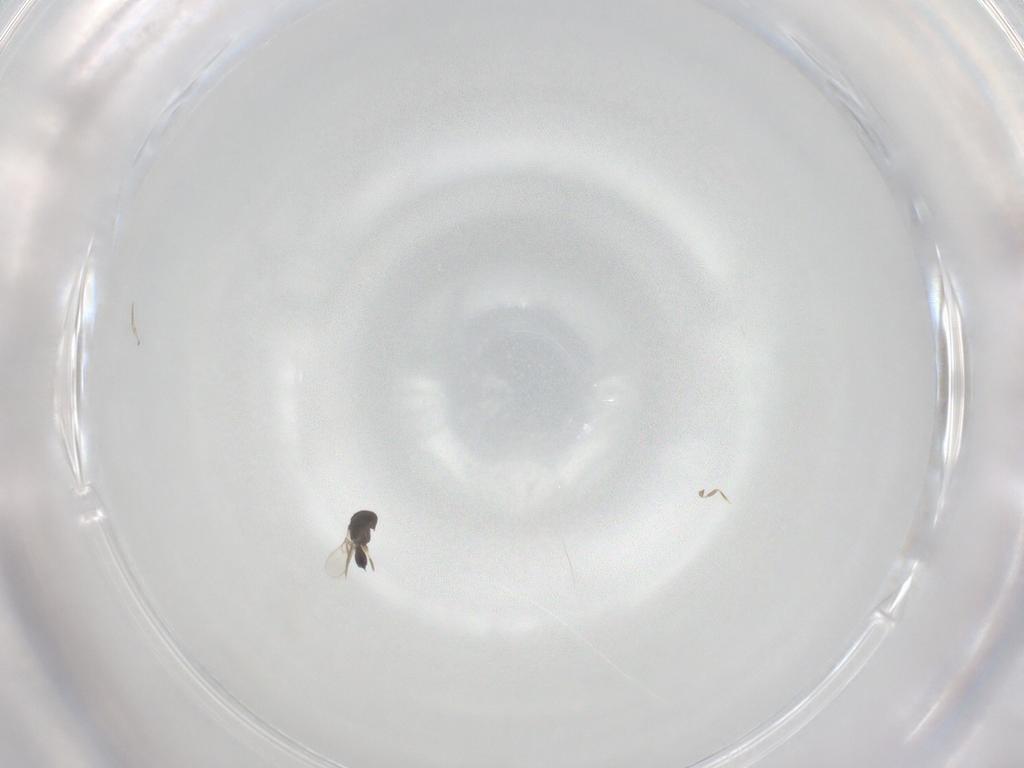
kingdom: Animalia
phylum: Arthropoda
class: Insecta
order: Hymenoptera
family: Scelionidae
